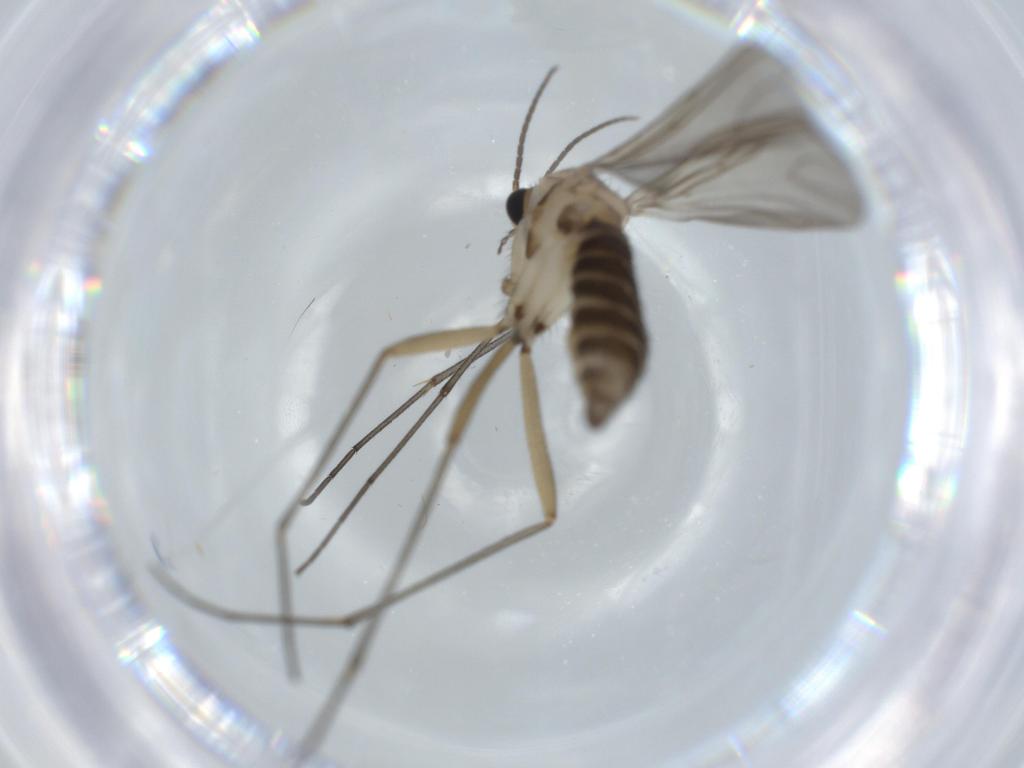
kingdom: Animalia
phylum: Arthropoda
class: Insecta
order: Diptera
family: Sciaridae
